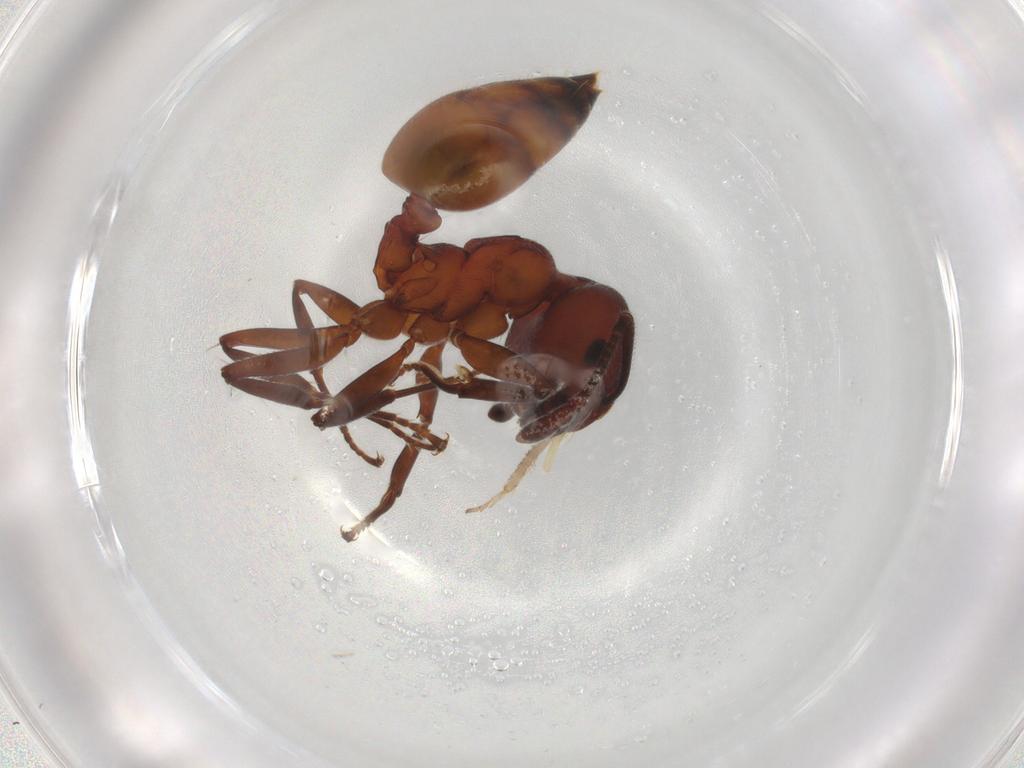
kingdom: Animalia
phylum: Arthropoda
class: Insecta
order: Hymenoptera
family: Formicidae
